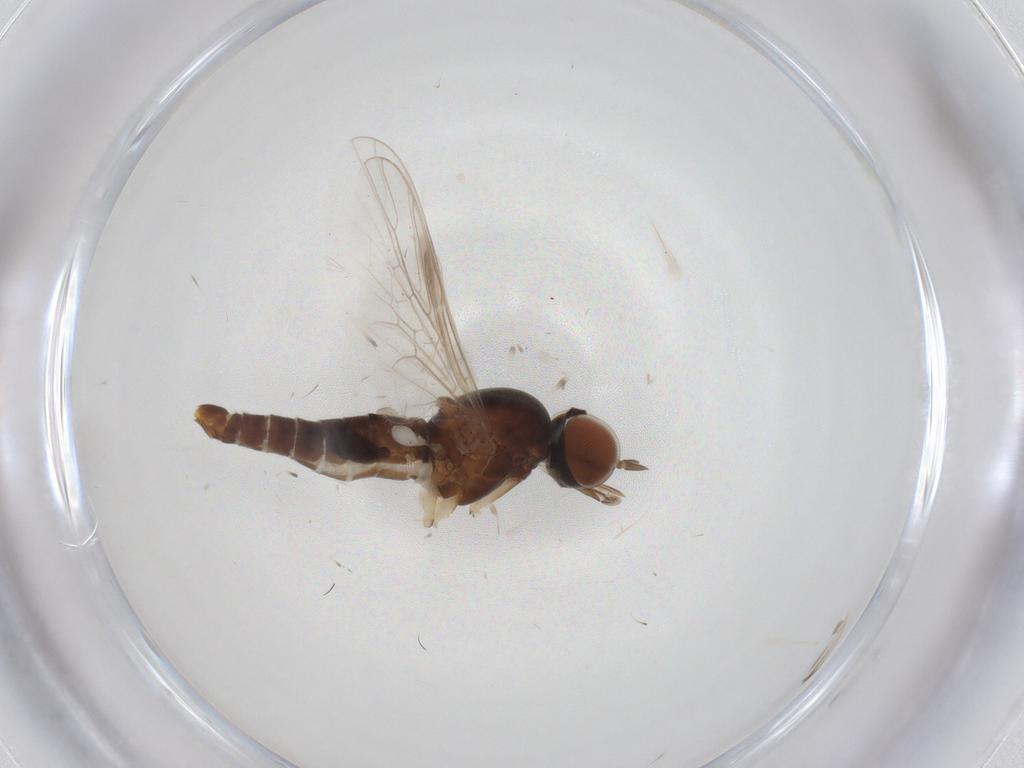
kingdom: Animalia
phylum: Arthropoda
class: Insecta
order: Diptera
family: Scenopinidae
